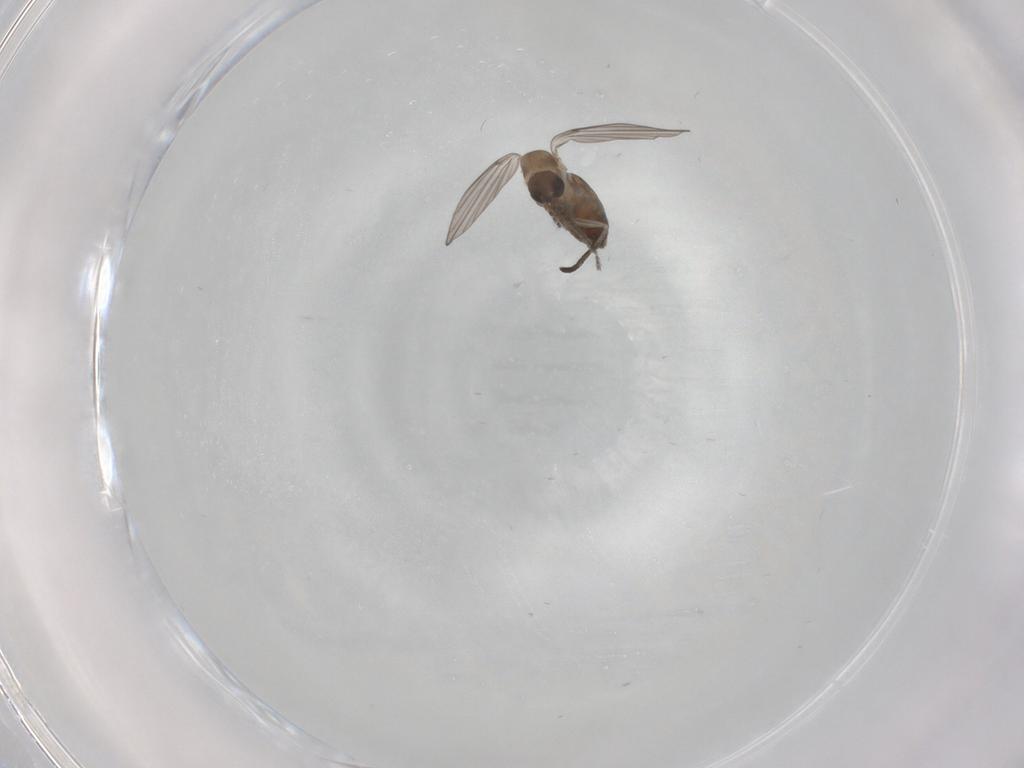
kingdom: Animalia
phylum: Arthropoda
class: Insecta
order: Diptera
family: Psychodidae
